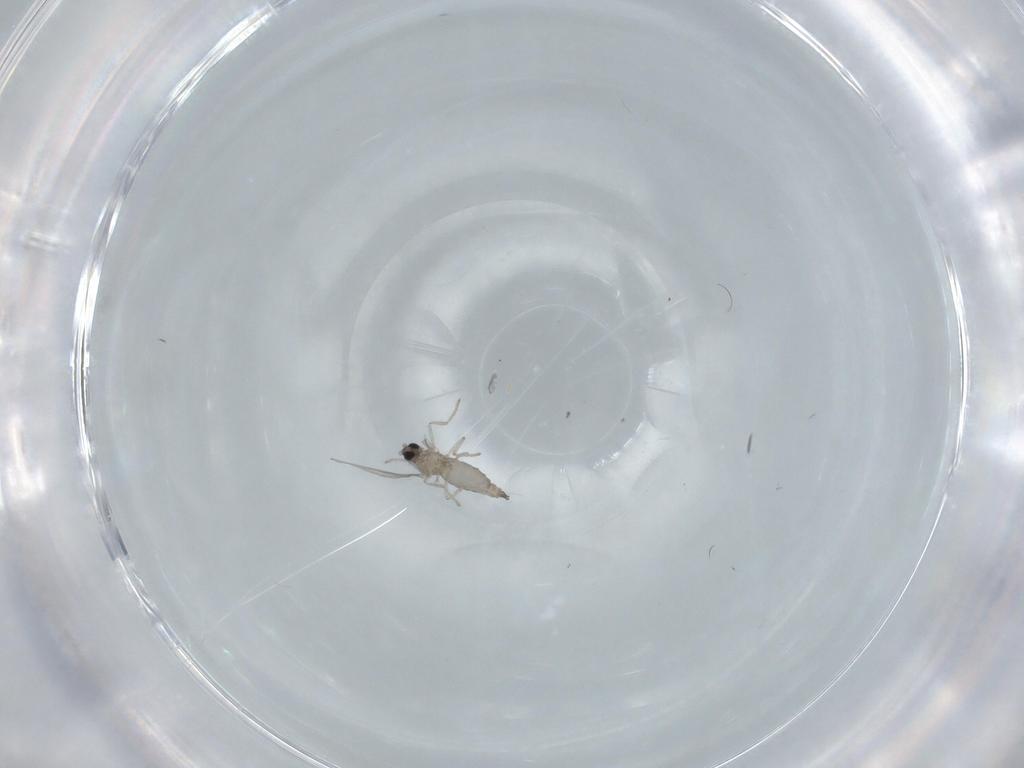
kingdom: Animalia
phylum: Arthropoda
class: Insecta
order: Diptera
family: Cecidomyiidae
